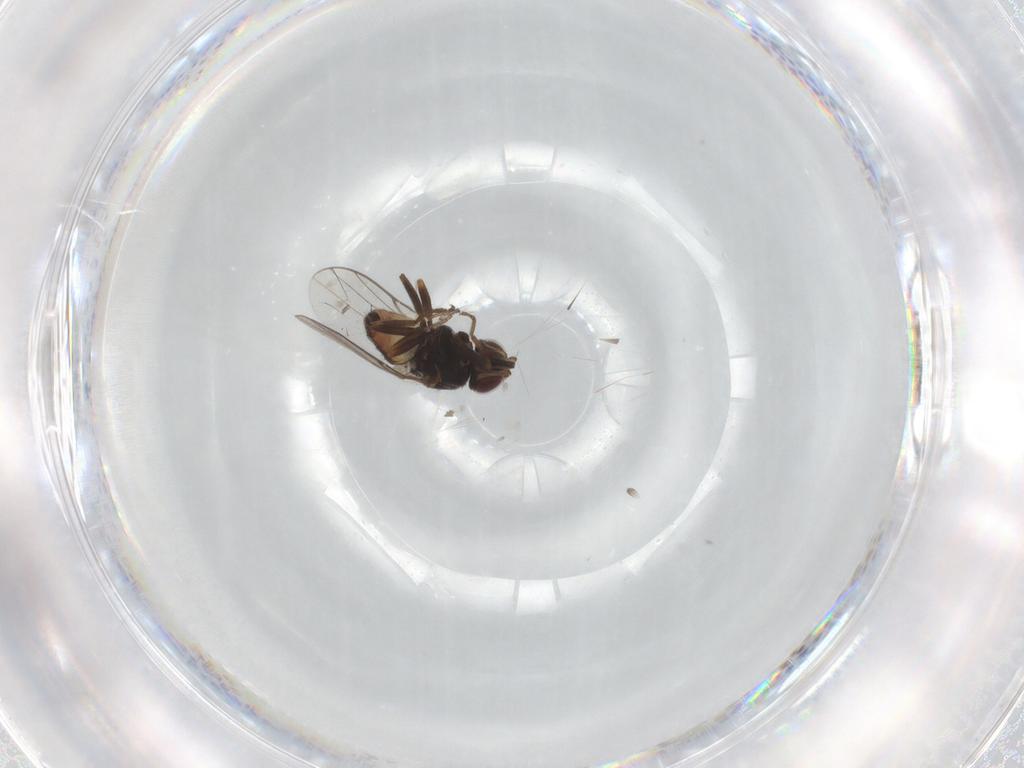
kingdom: Animalia
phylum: Arthropoda
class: Insecta
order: Diptera
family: Chloropidae
